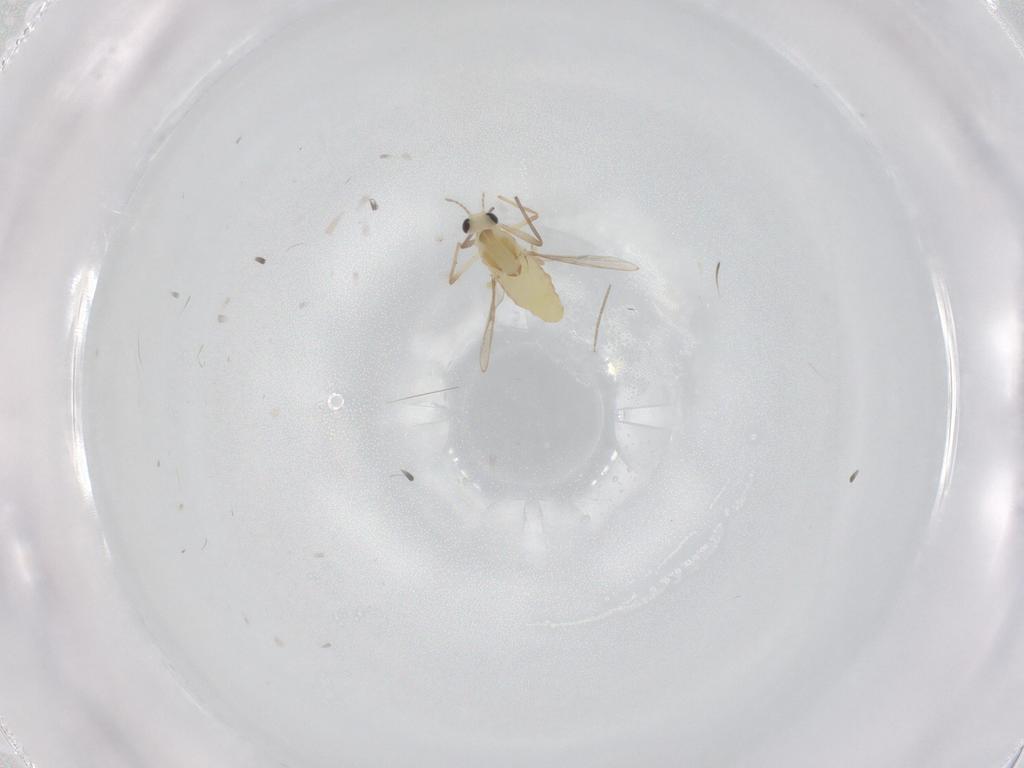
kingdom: Animalia
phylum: Arthropoda
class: Insecta
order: Diptera
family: Chironomidae
